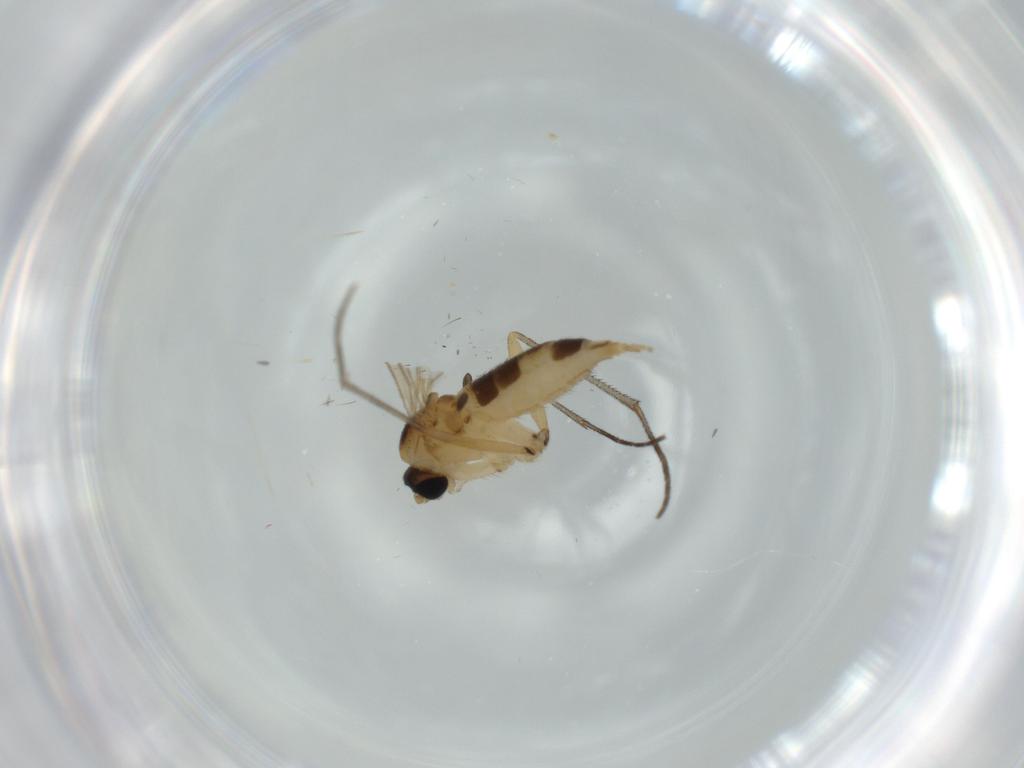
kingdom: Animalia
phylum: Arthropoda
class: Insecta
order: Diptera
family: Sciaridae
